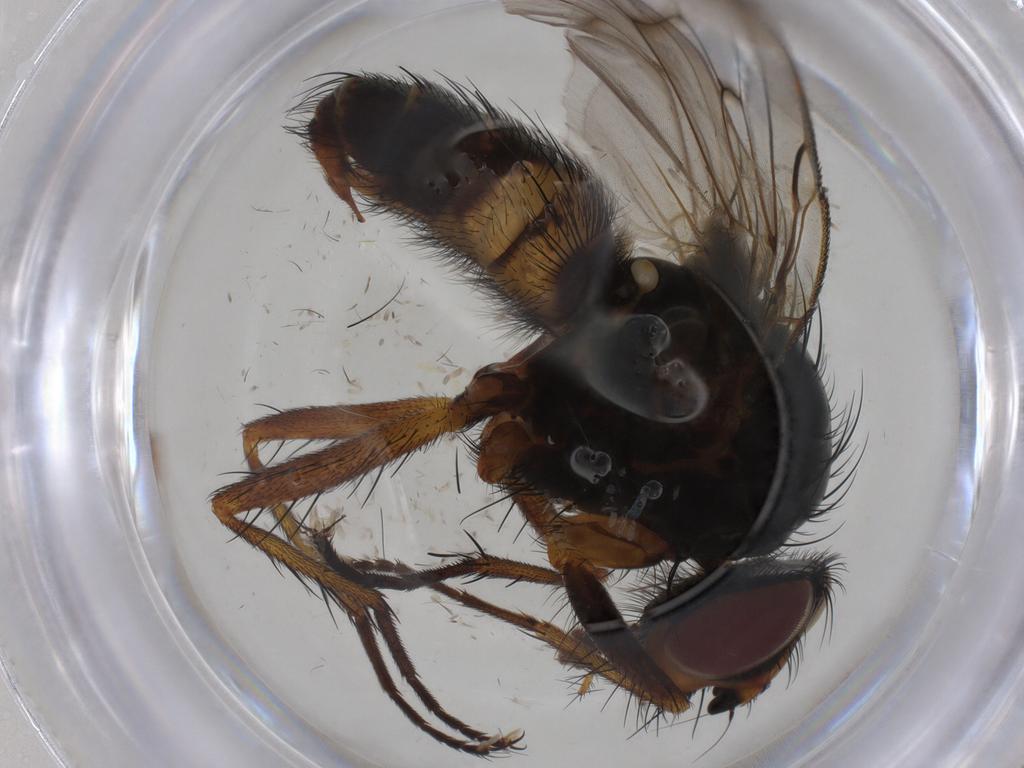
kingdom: Animalia
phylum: Arthropoda
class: Insecta
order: Diptera
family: Anthomyiidae
